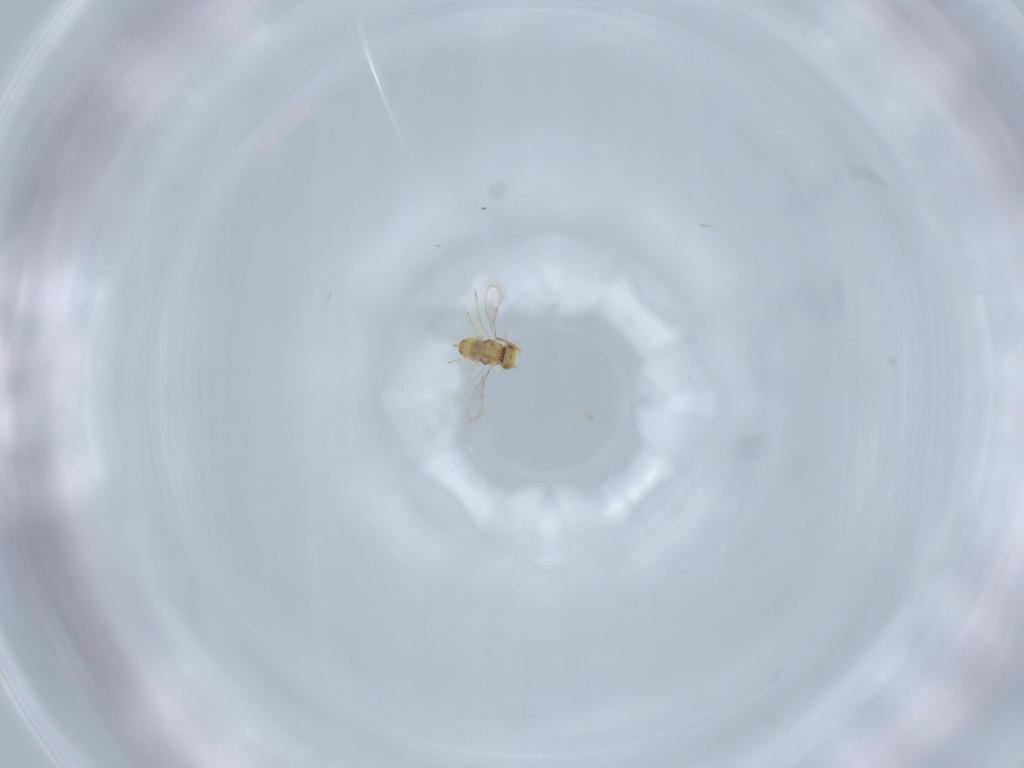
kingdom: Animalia
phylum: Arthropoda
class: Insecta
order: Hymenoptera
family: Aphelinidae
